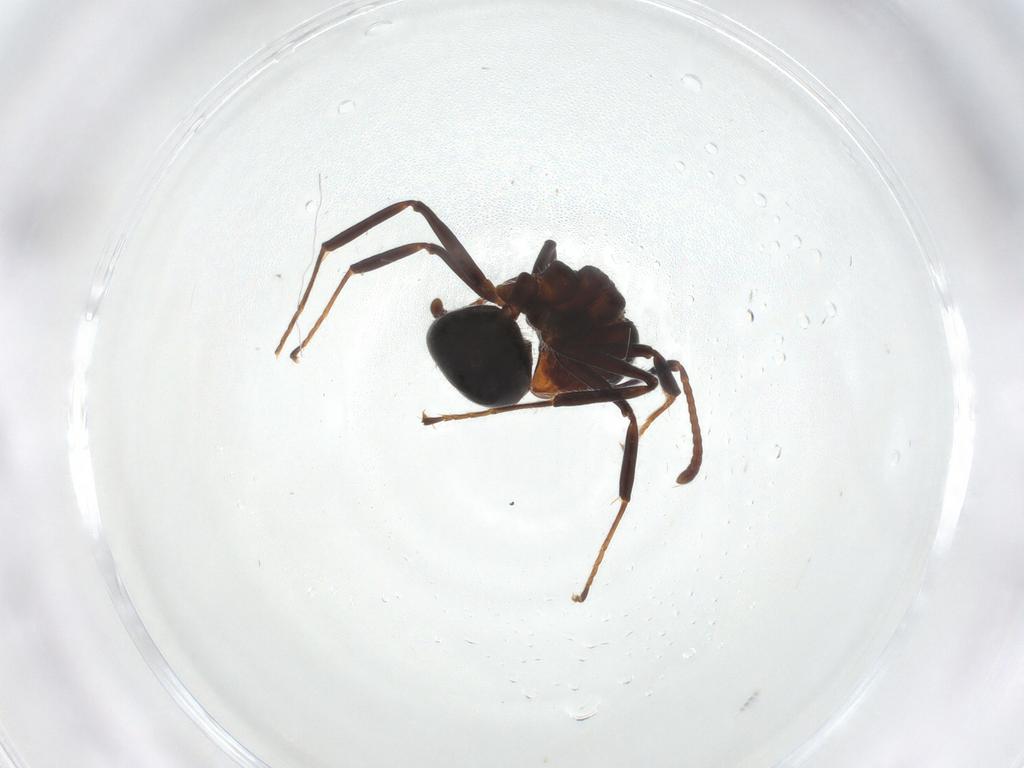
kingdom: Animalia
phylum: Arthropoda
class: Insecta
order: Hymenoptera
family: Formicidae
